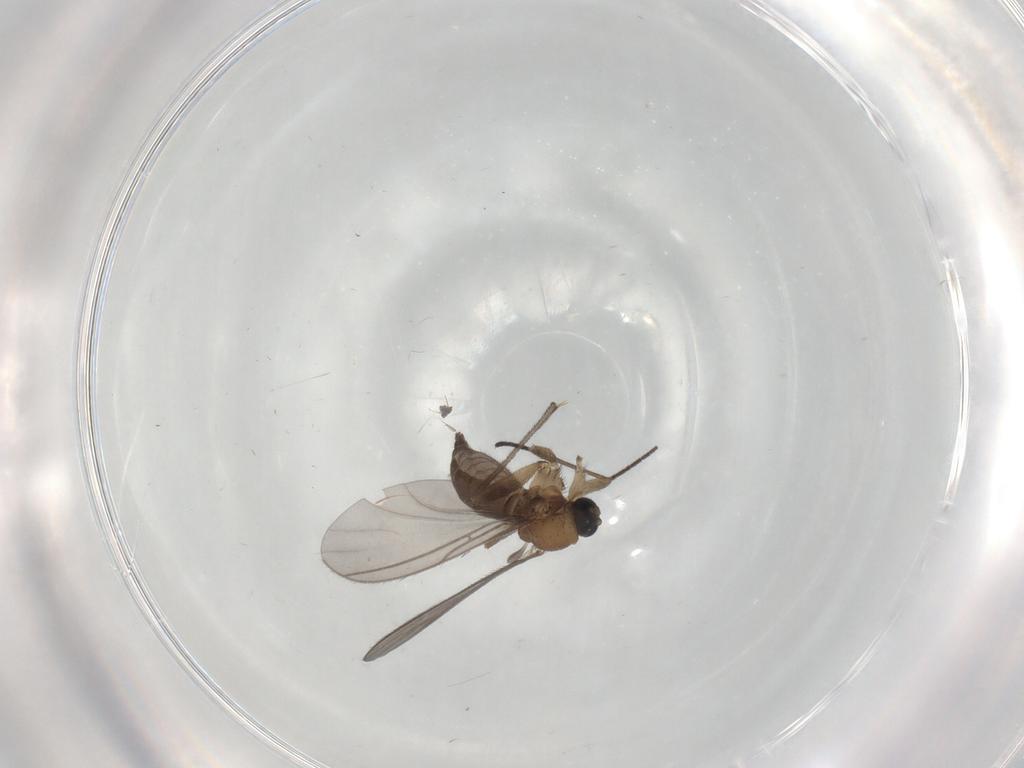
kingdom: Animalia
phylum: Arthropoda
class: Insecta
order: Diptera
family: Sciaridae
